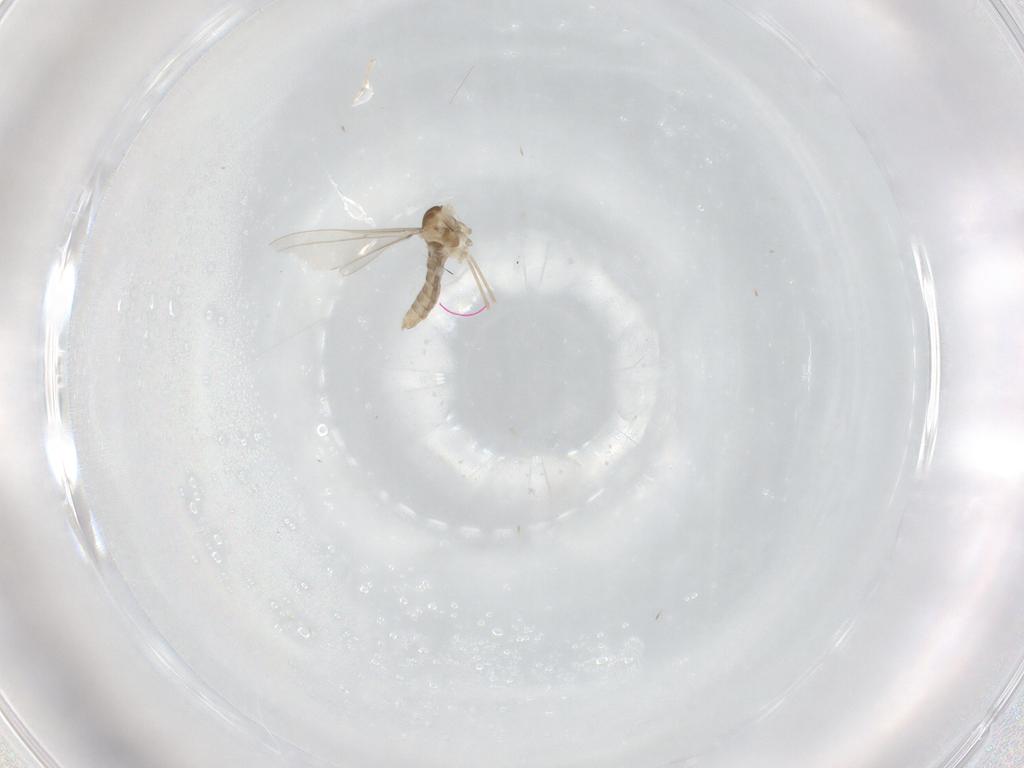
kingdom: Animalia
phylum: Arthropoda
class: Insecta
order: Diptera
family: Cecidomyiidae
